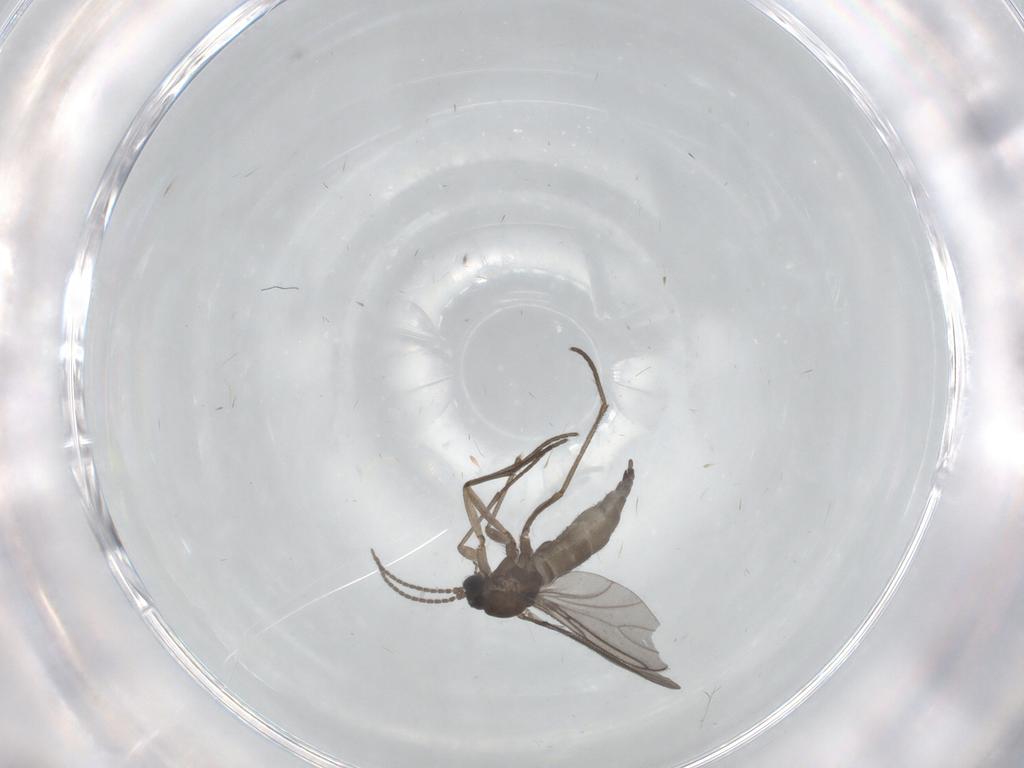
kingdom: Animalia
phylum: Arthropoda
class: Insecta
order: Diptera
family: Sciaridae
